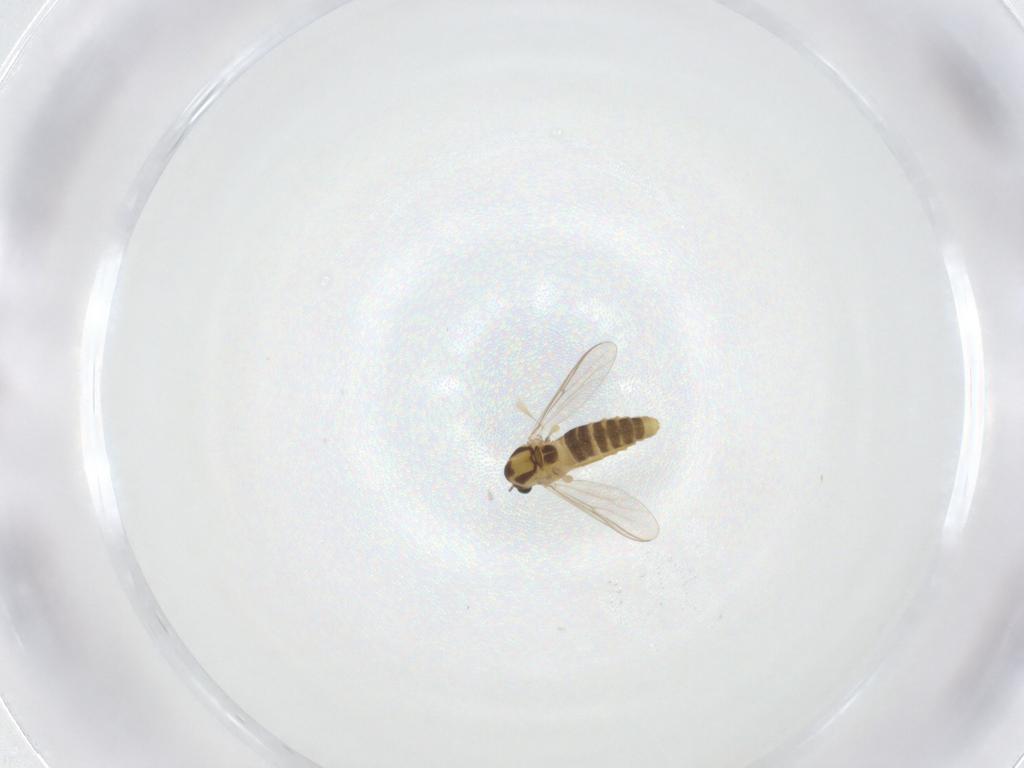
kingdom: Animalia
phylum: Arthropoda
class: Insecta
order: Diptera
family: Chironomidae
